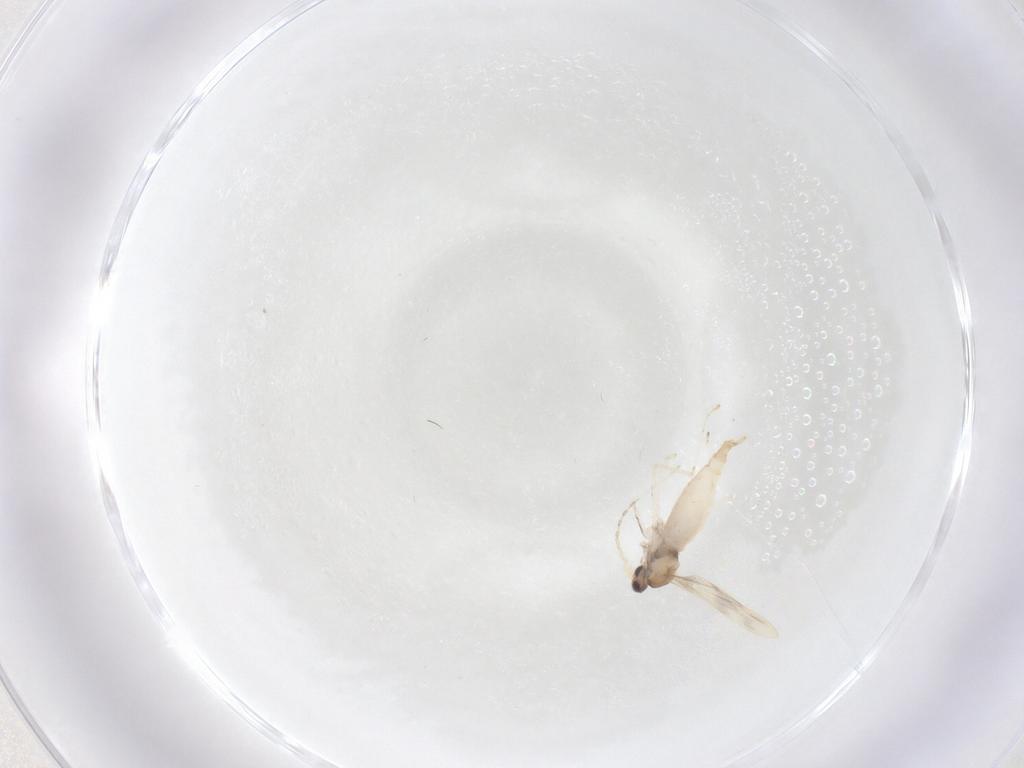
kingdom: Animalia
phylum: Arthropoda
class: Insecta
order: Diptera
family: Cecidomyiidae
